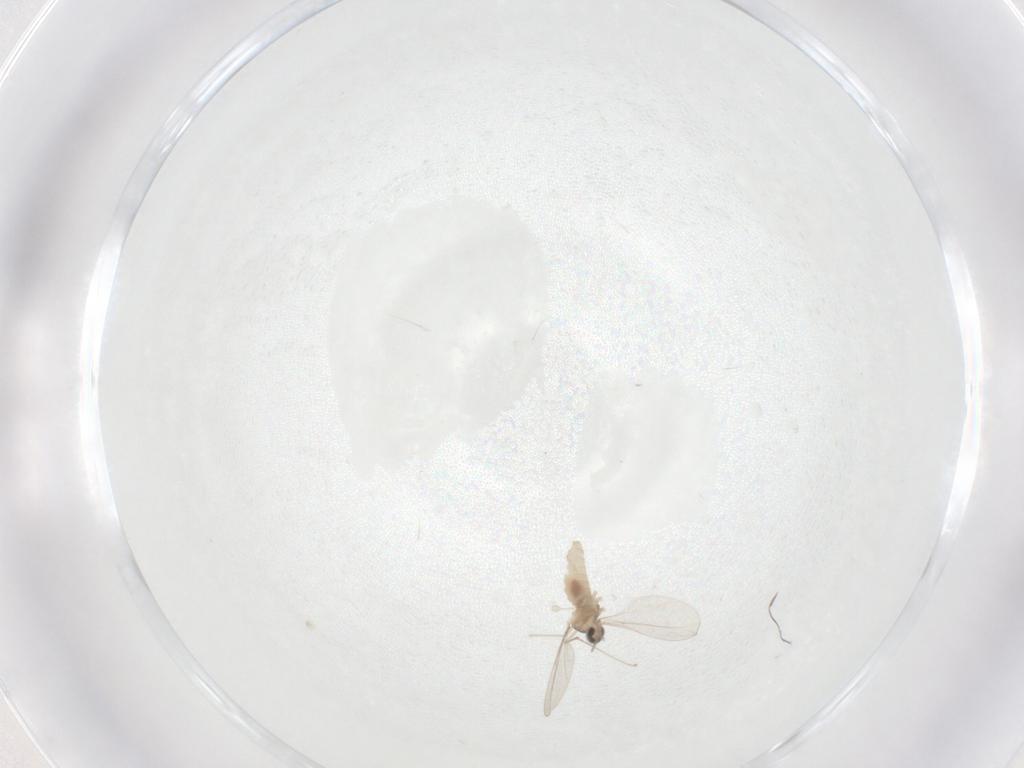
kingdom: Animalia
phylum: Arthropoda
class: Insecta
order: Diptera
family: Cecidomyiidae
